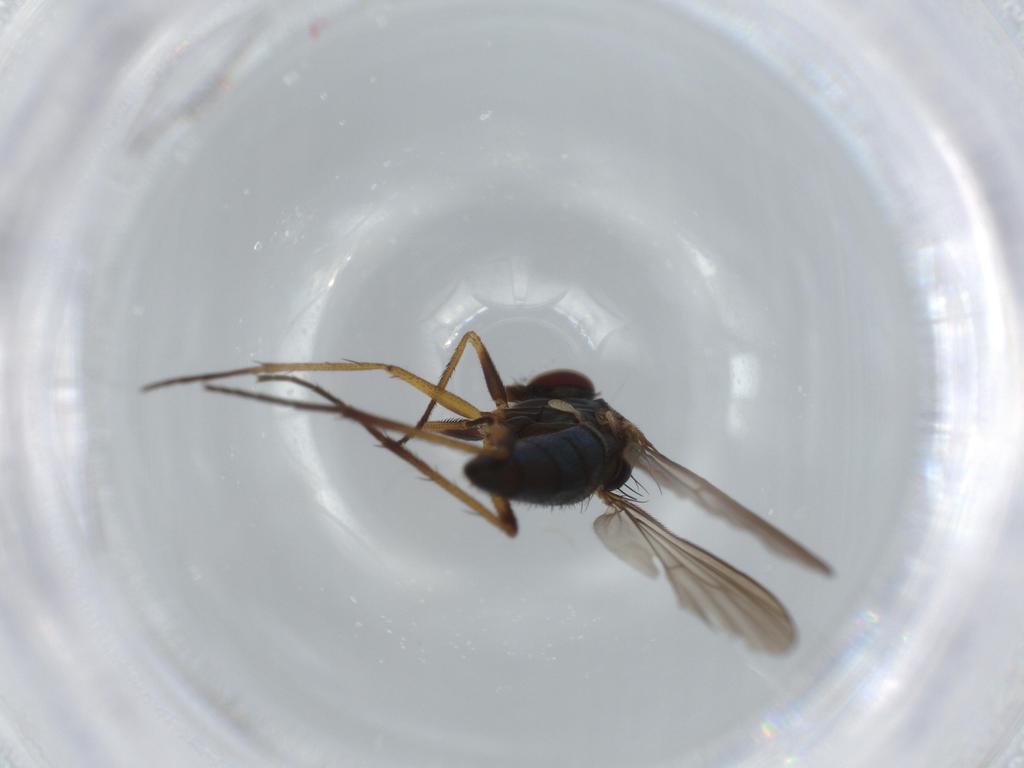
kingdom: Animalia
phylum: Arthropoda
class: Insecta
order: Diptera
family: Dolichopodidae
